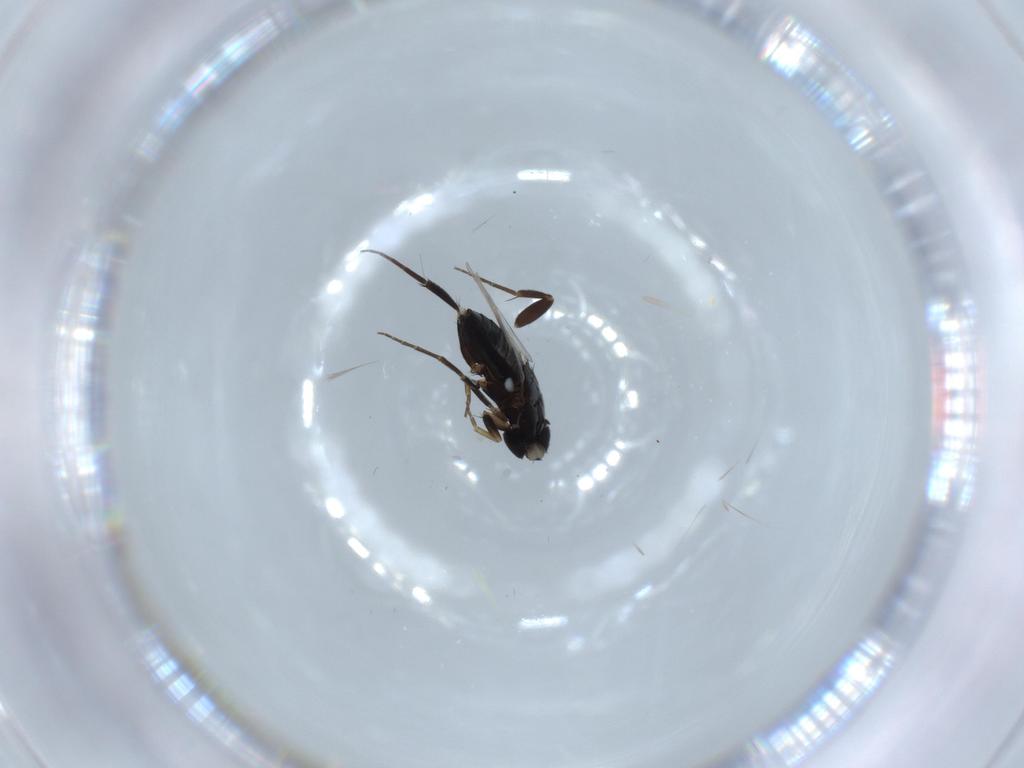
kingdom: Animalia
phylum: Arthropoda
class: Insecta
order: Diptera
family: Phoridae
